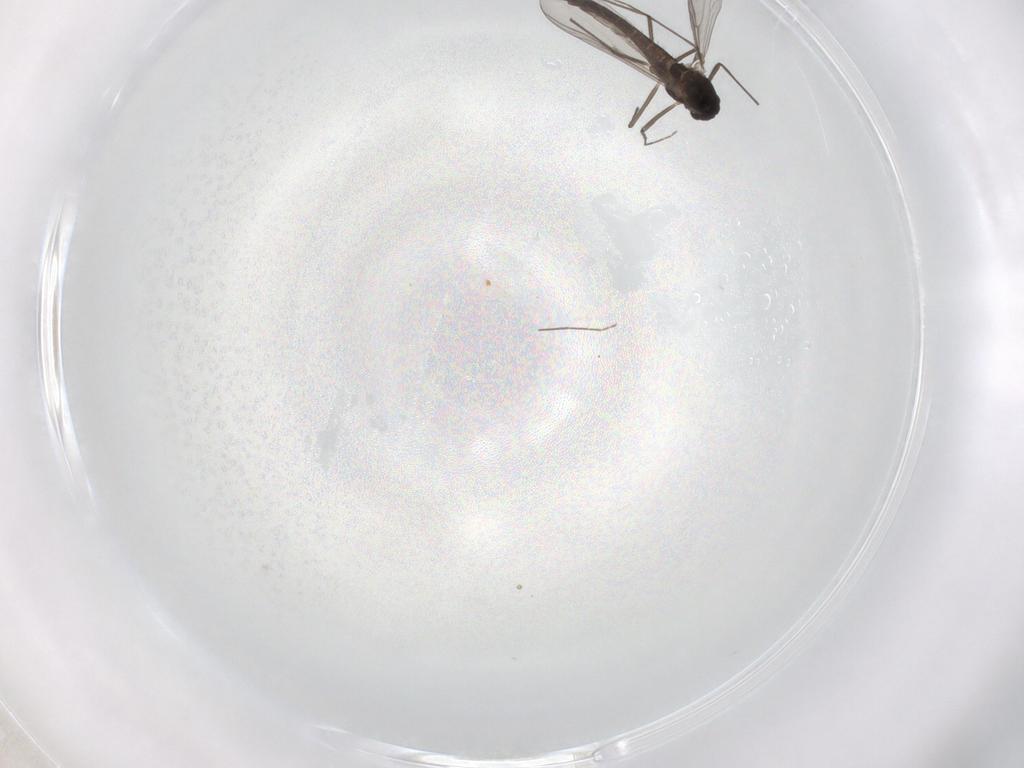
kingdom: Animalia
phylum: Arthropoda
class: Insecta
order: Diptera
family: Chironomidae
